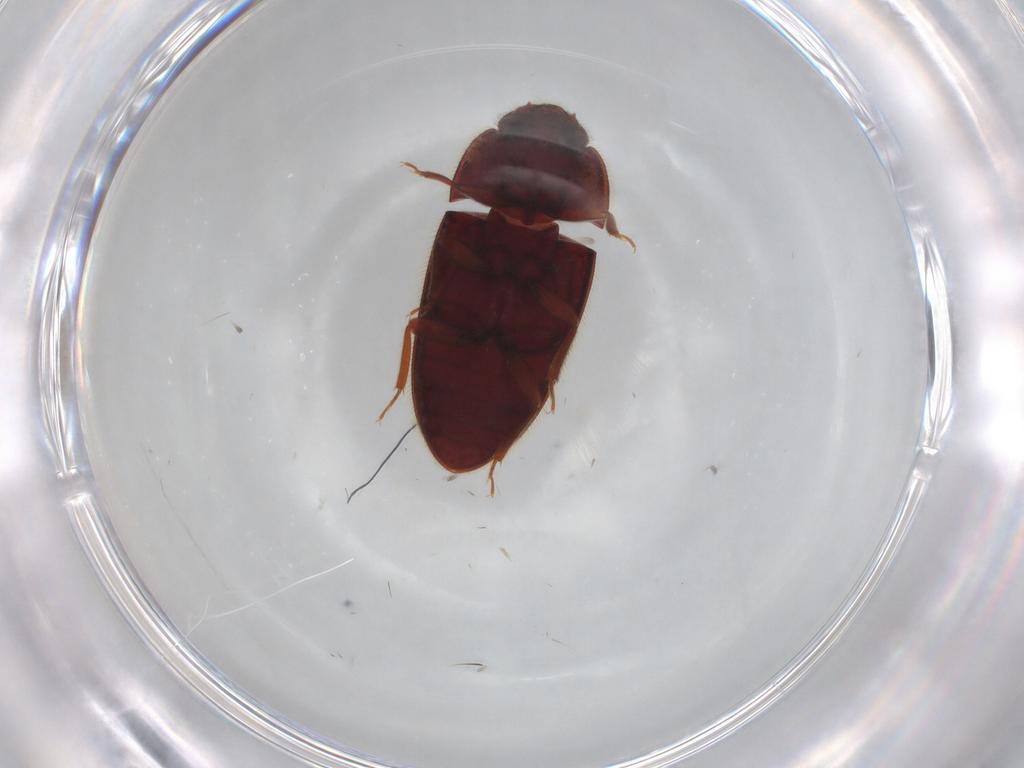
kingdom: Animalia
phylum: Arthropoda
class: Insecta
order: Coleoptera
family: Biphyllidae
